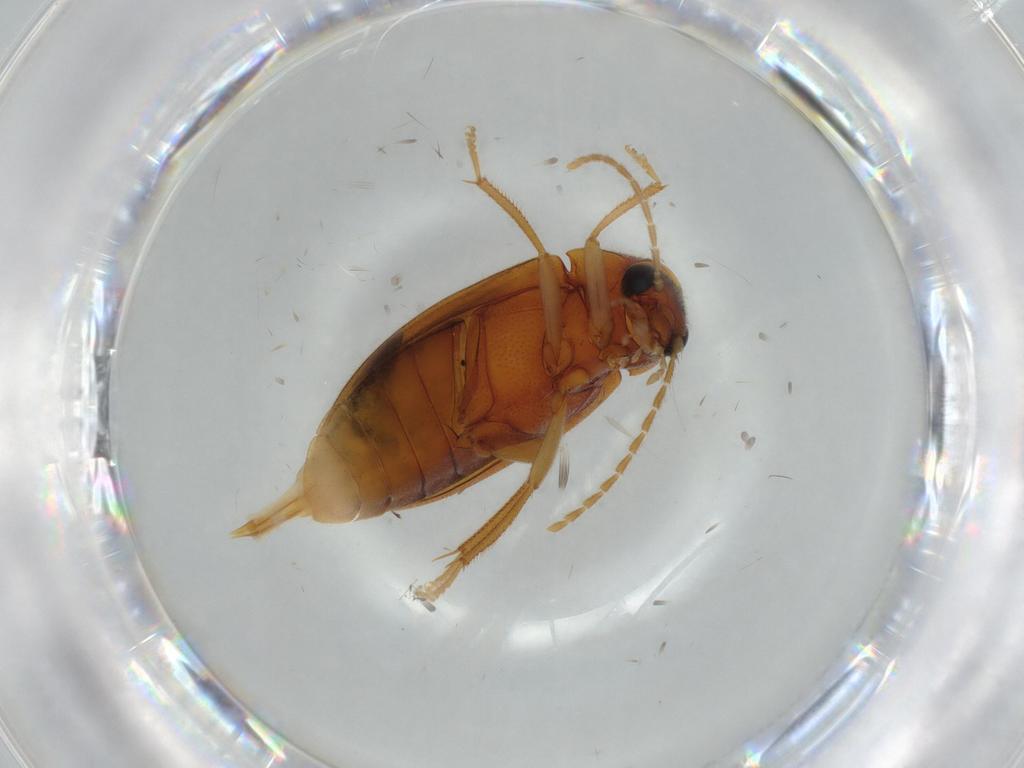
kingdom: Animalia
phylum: Arthropoda
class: Insecta
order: Coleoptera
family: Ptilodactylidae
